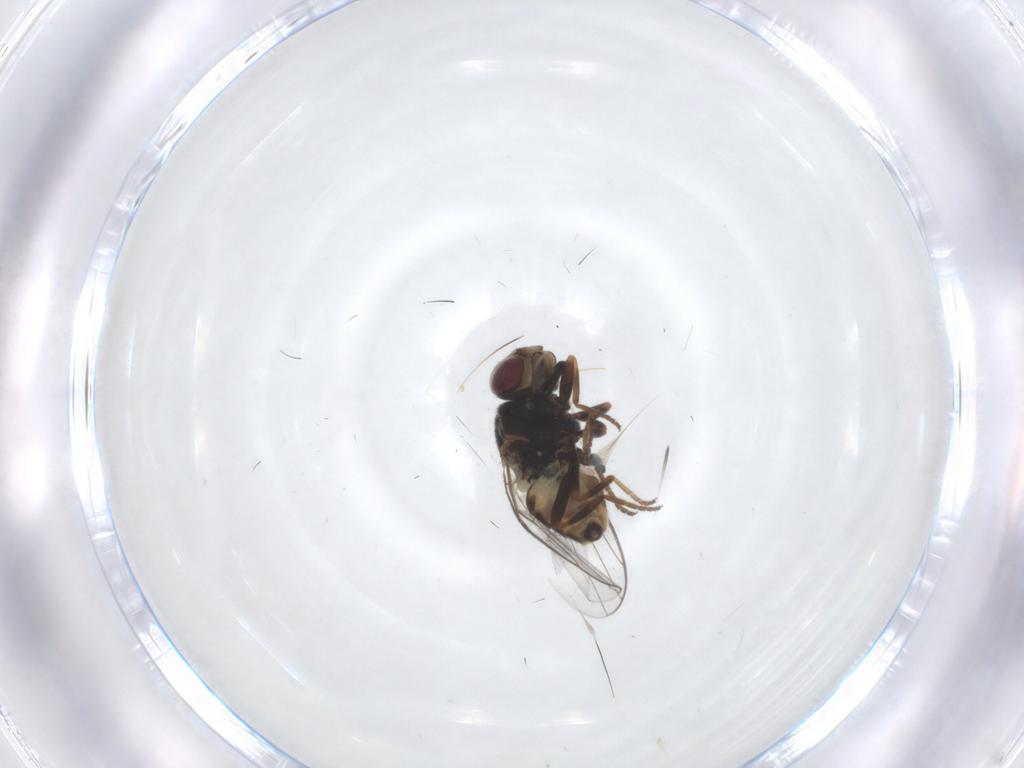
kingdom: Animalia
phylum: Arthropoda
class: Insecta
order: Diptera
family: Chloropidae
